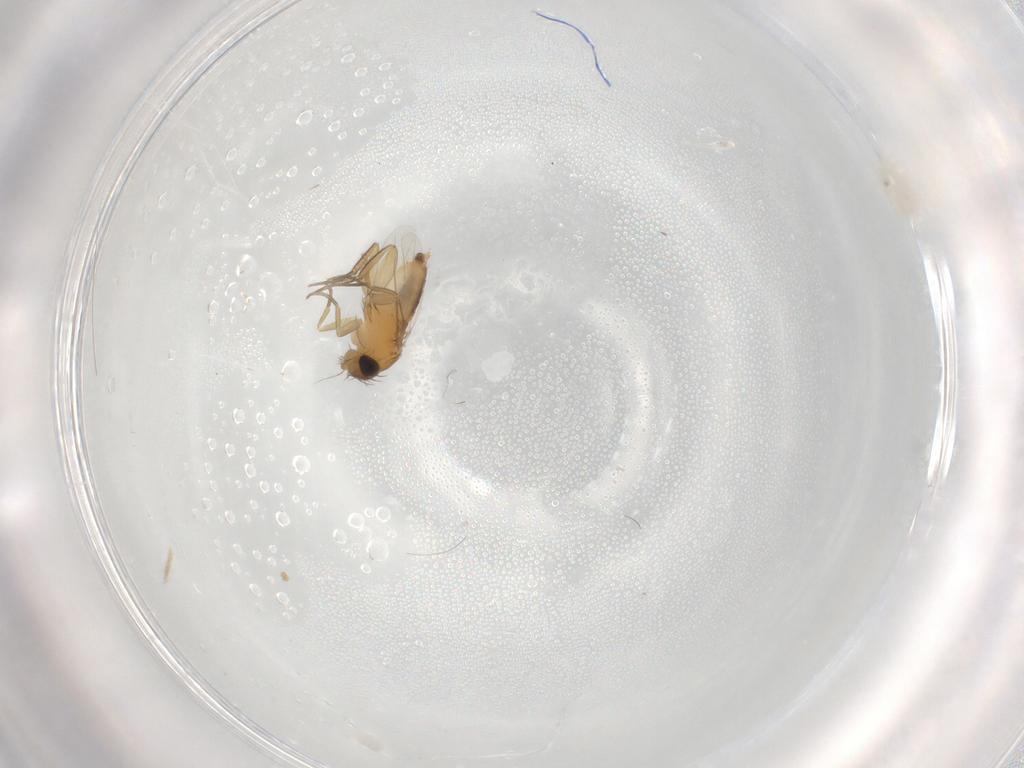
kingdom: Animalia
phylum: Arthropoda
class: Insecta
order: Diptera
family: Phoridae
